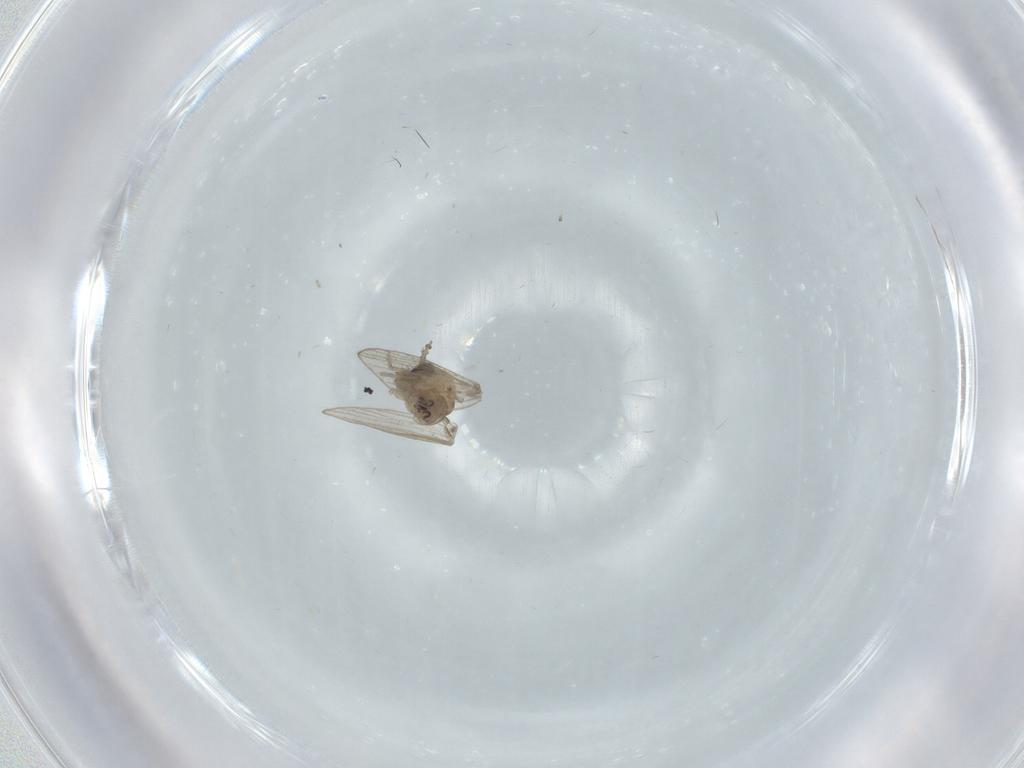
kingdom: Animalia
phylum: Arthropoda
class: Insecta
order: Diptera
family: Psychodidae
